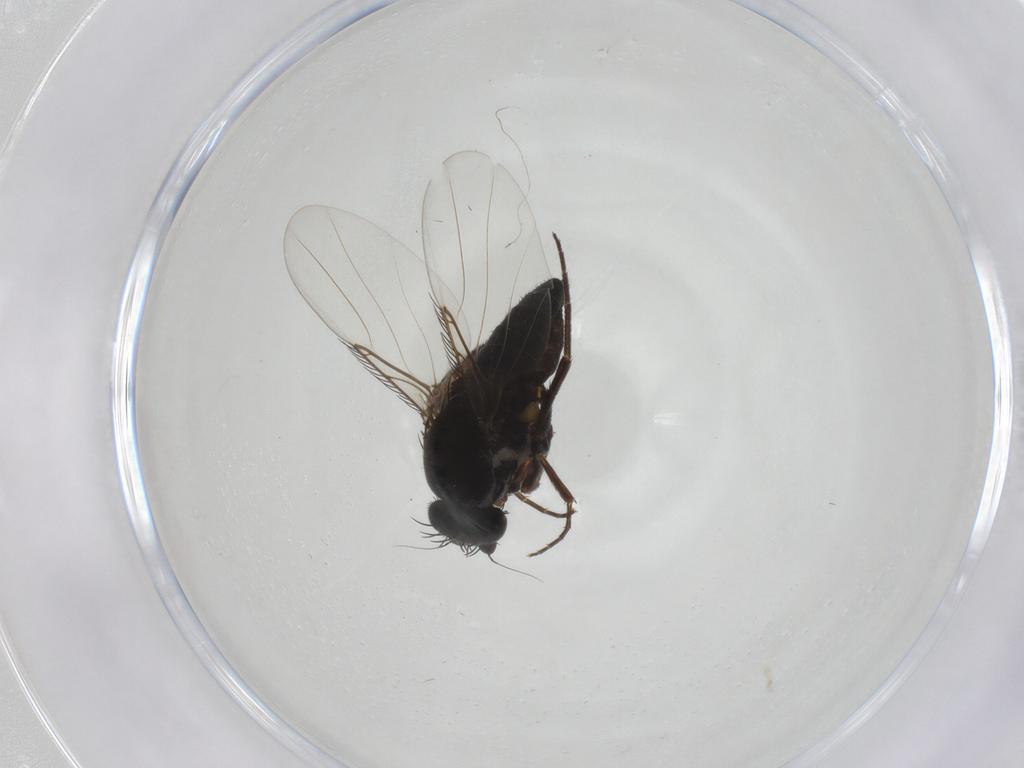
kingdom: Animalia
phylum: Arthropoda
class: Insecta
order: Diptera
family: Phoridae
